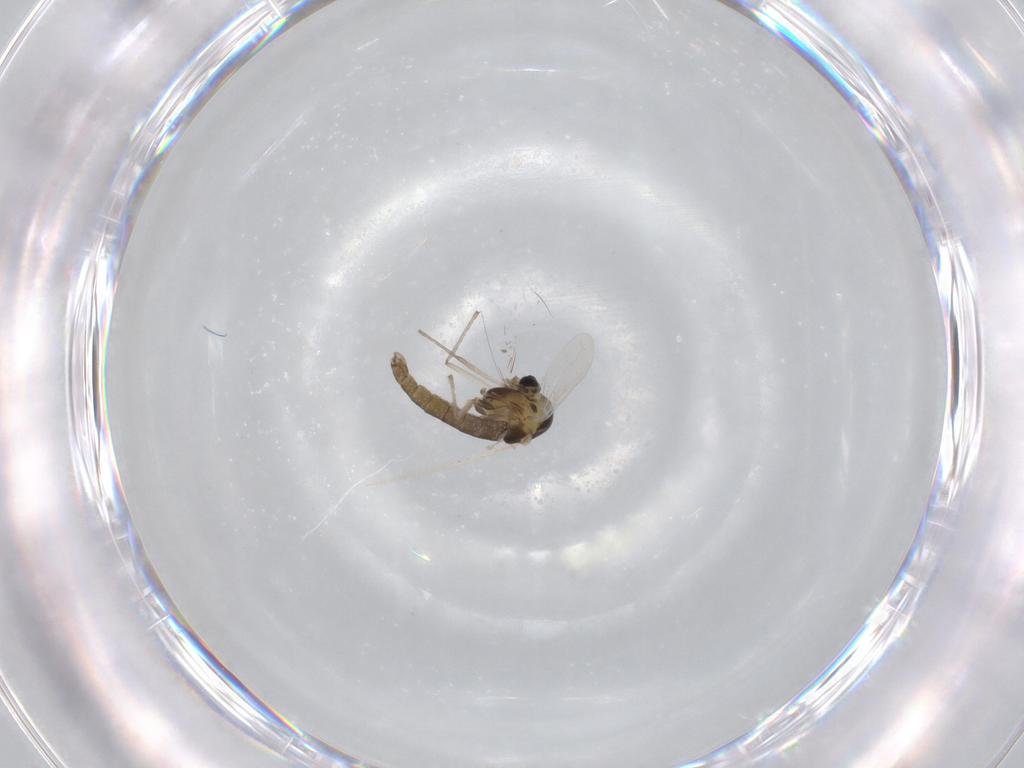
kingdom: Animalia
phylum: Arthropoda
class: Insecta
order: Diptera
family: Chironomidae
